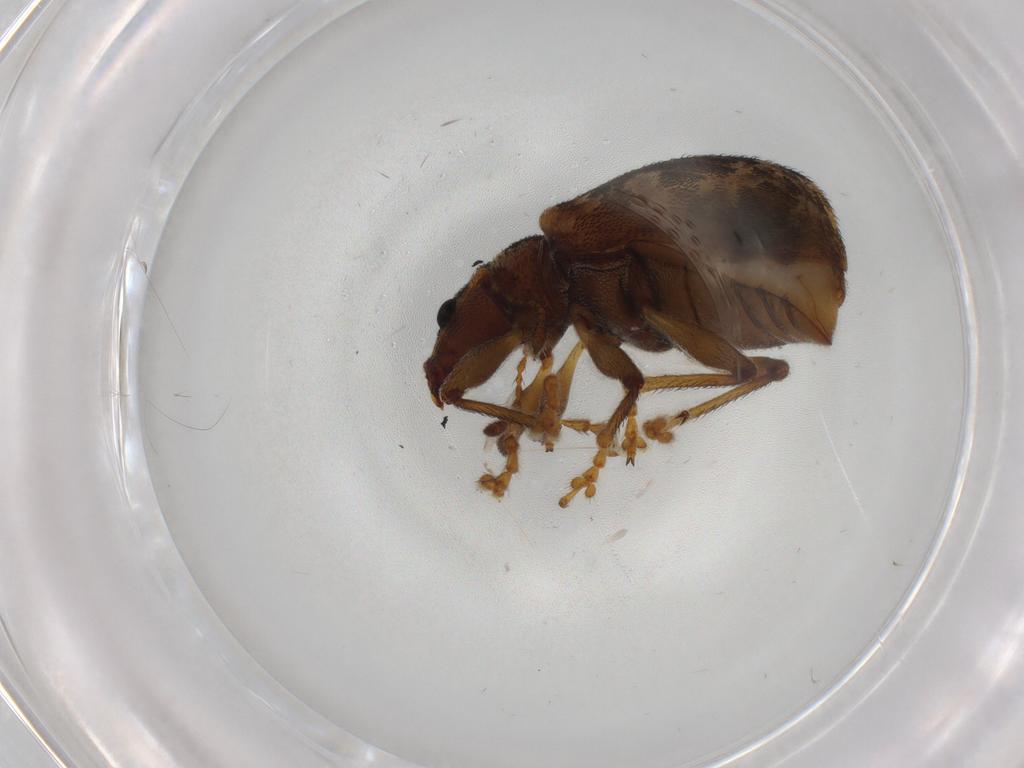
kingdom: Animalia
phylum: Arthropoda
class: Insecta
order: Coleoptera
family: Curculionidae
